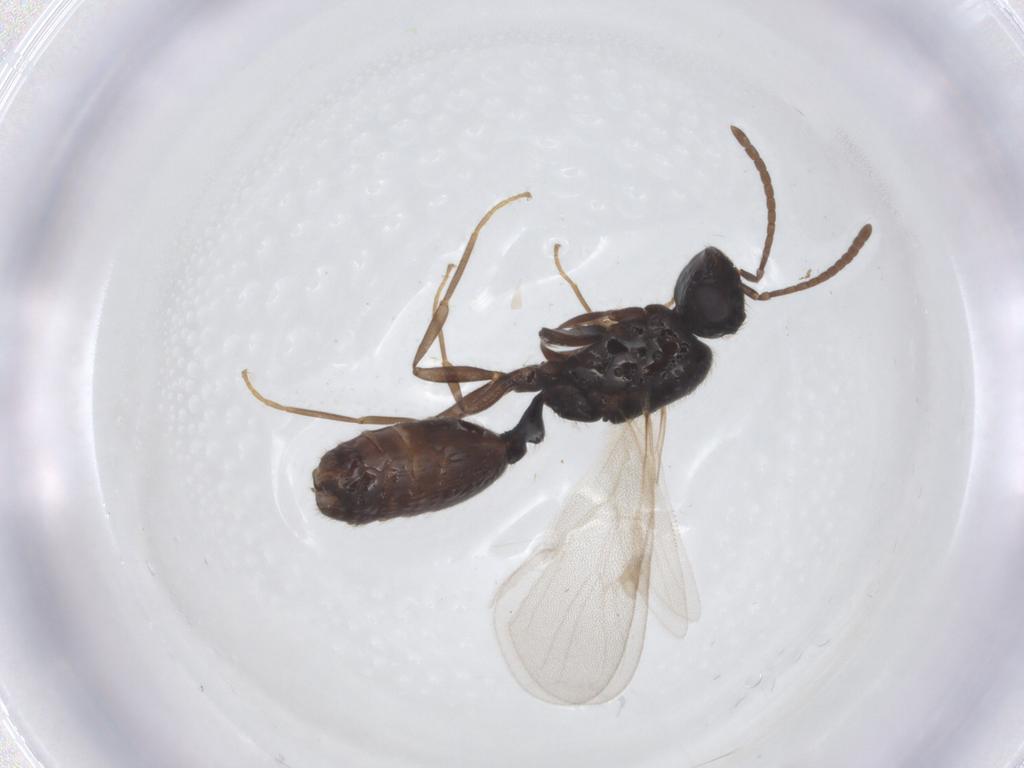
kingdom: Animalia
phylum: Arthropoda
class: Insecta
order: Hymenoptera
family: Formicidae
